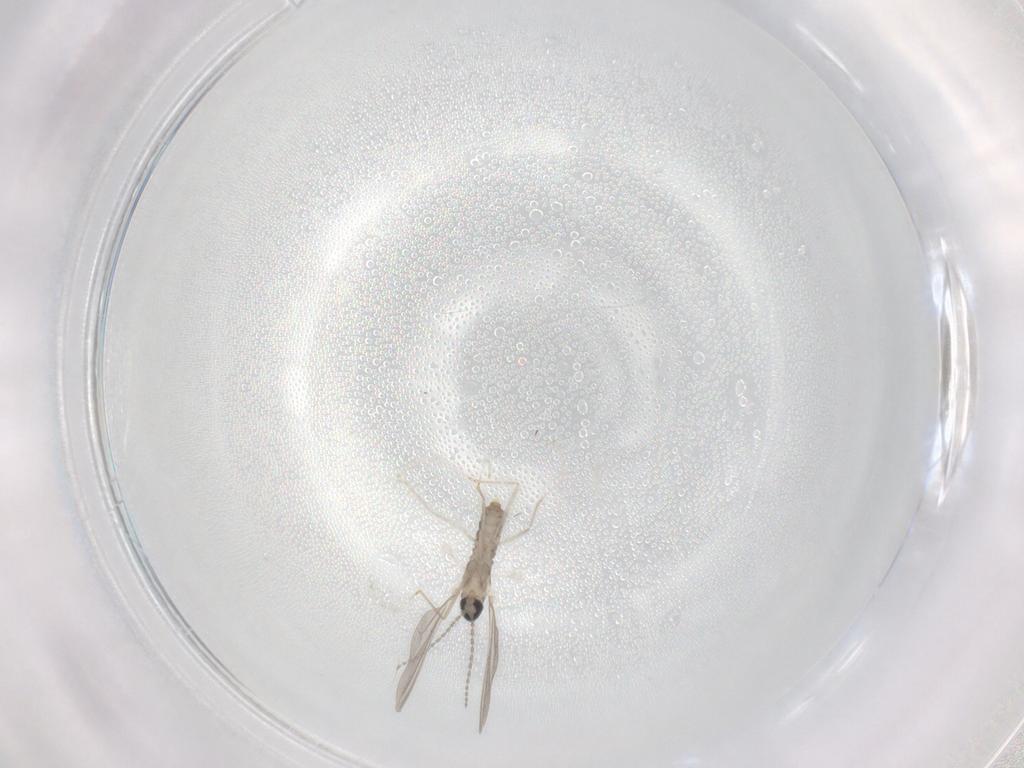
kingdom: Animalia
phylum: Arthropoda
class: Insecta
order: Diptera
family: Cecidomyiidae
